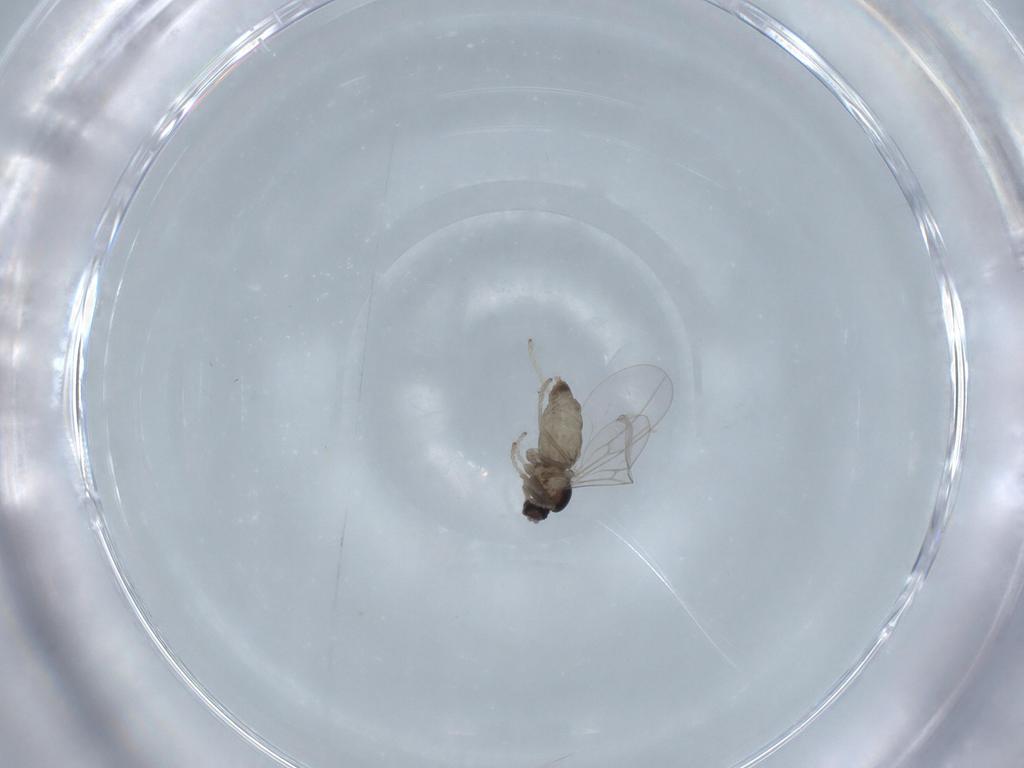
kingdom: Animalia
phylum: Arthropoda
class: Insecta
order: Diptera
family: Cecidomyiidae
